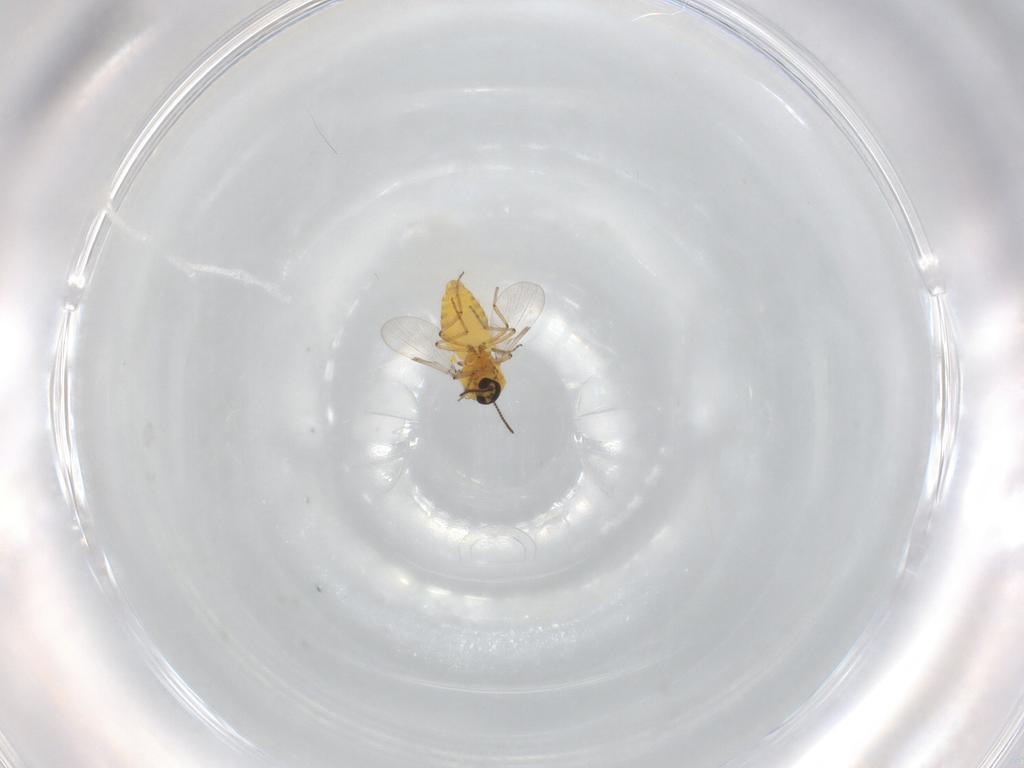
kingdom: Animalia
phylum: Arthropoda
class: Insecta
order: Diptera
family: Ceratopogonidae
